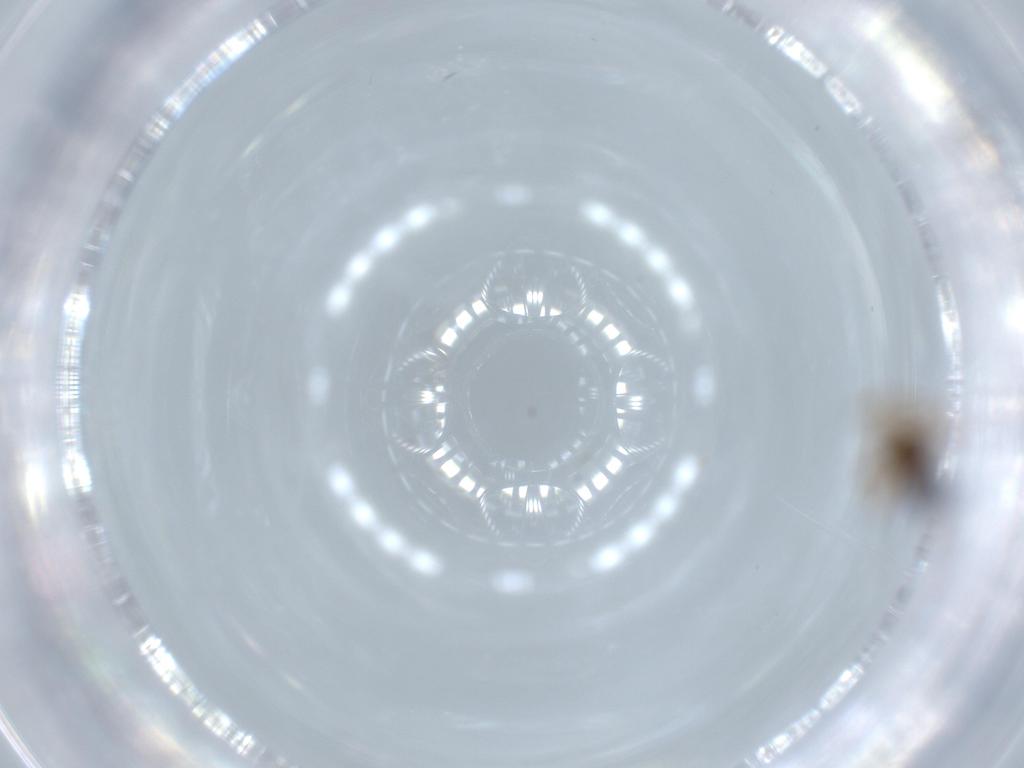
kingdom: Animalia
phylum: Arthropoda
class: Insecta
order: Hymenoptera
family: Diapriidae
